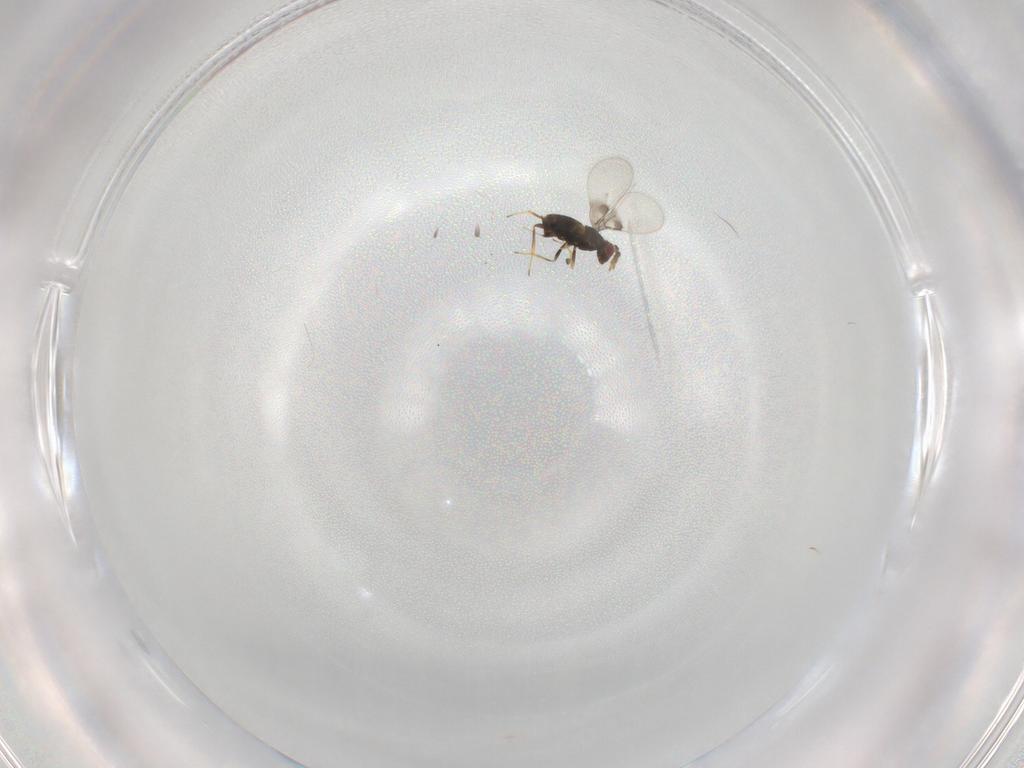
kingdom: Animalia
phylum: Arthropoda
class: Insecta
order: Hymenoptera
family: Trichogrammatidae
